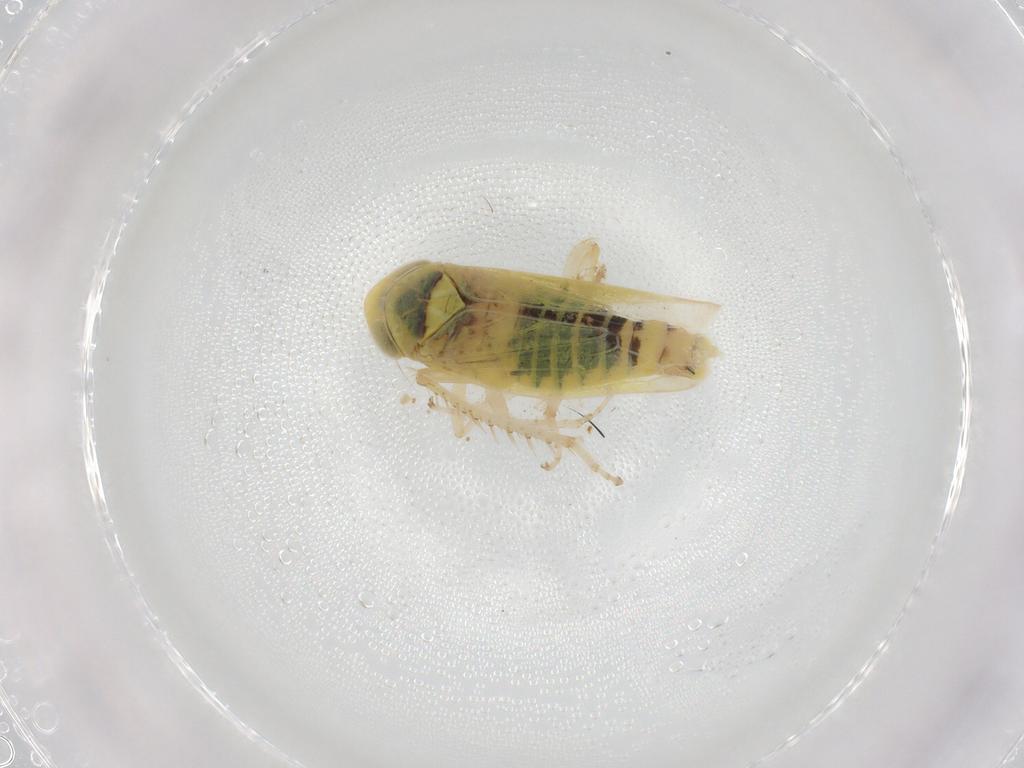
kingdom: Animalia
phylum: Arthropoda
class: Insecta
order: Hemiptera
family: Cicadellidae
